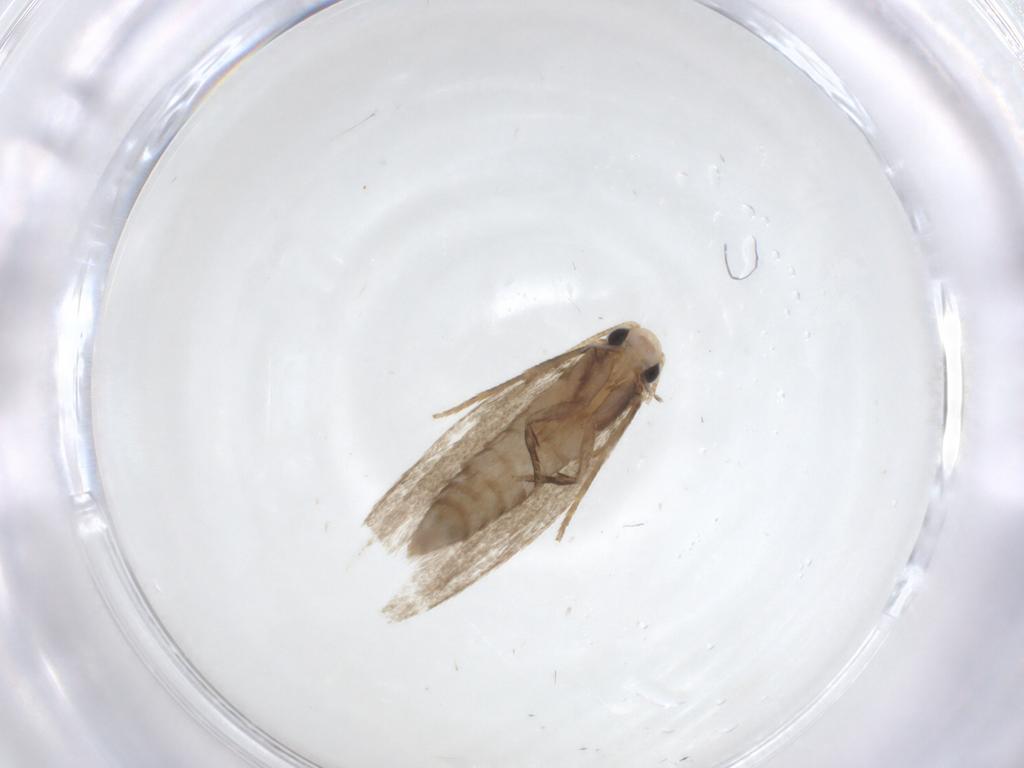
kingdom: Animalia
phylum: Arthropoda
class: Insecta
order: Lepidoptera
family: Tineidae
